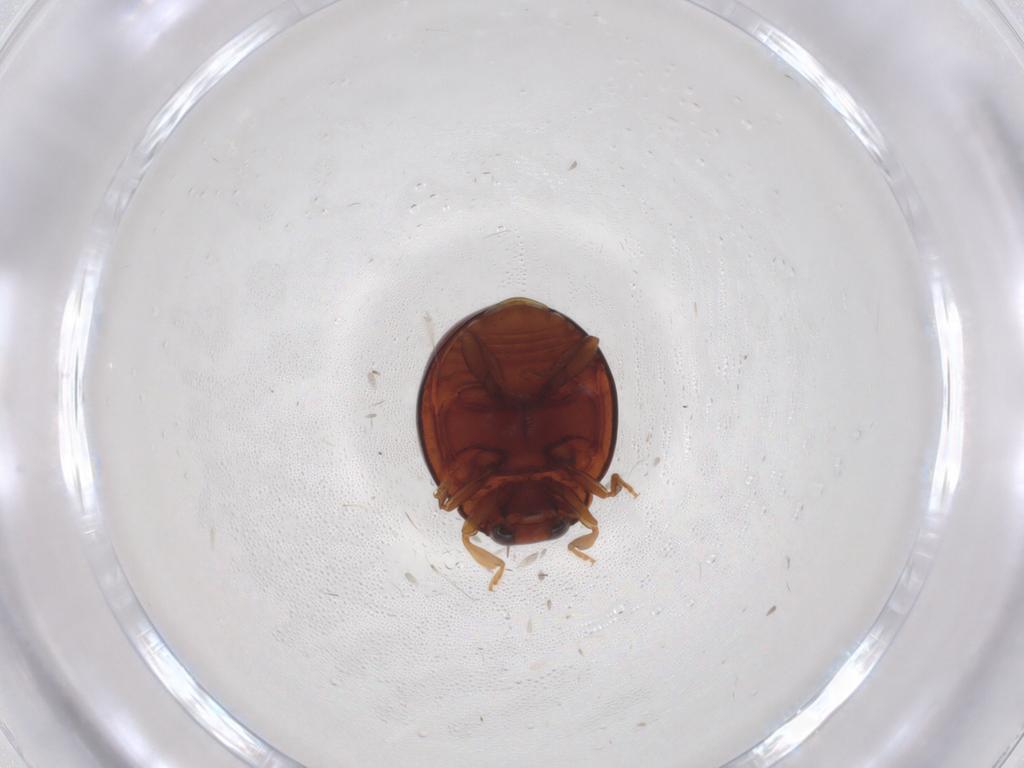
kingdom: Animalia
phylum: Arthropoda
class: Insecta
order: Coleoptera
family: Coccinellidae
